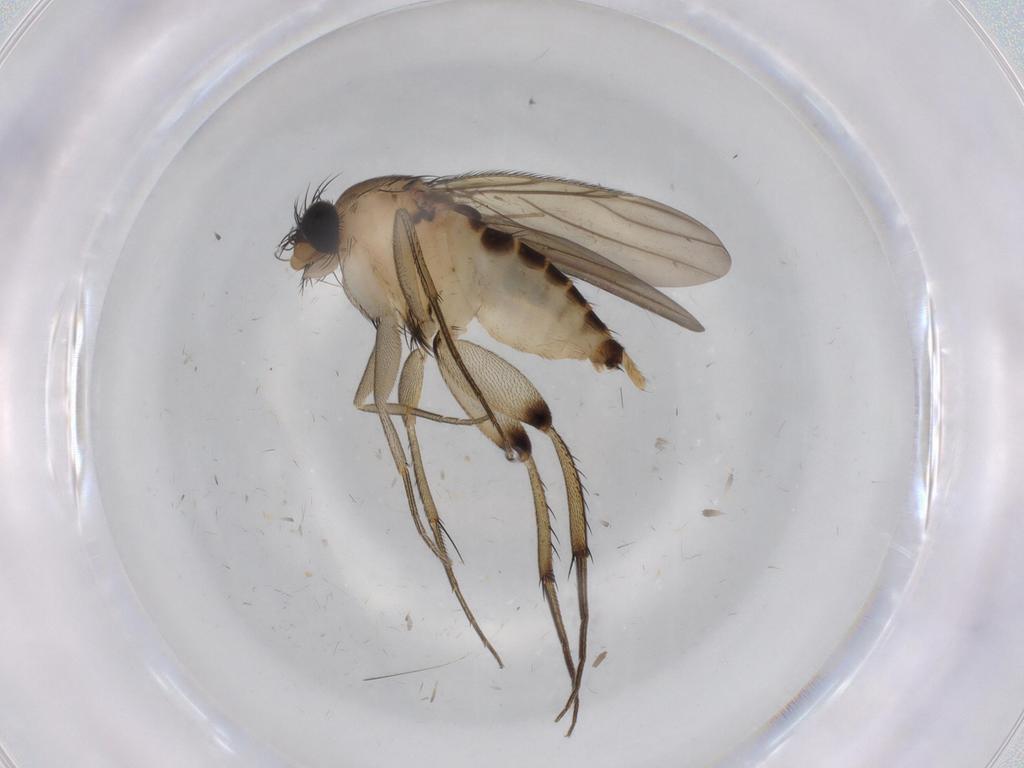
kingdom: Animalia
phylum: Arthropoda
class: Insecta
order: Diptera
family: Phoridae
